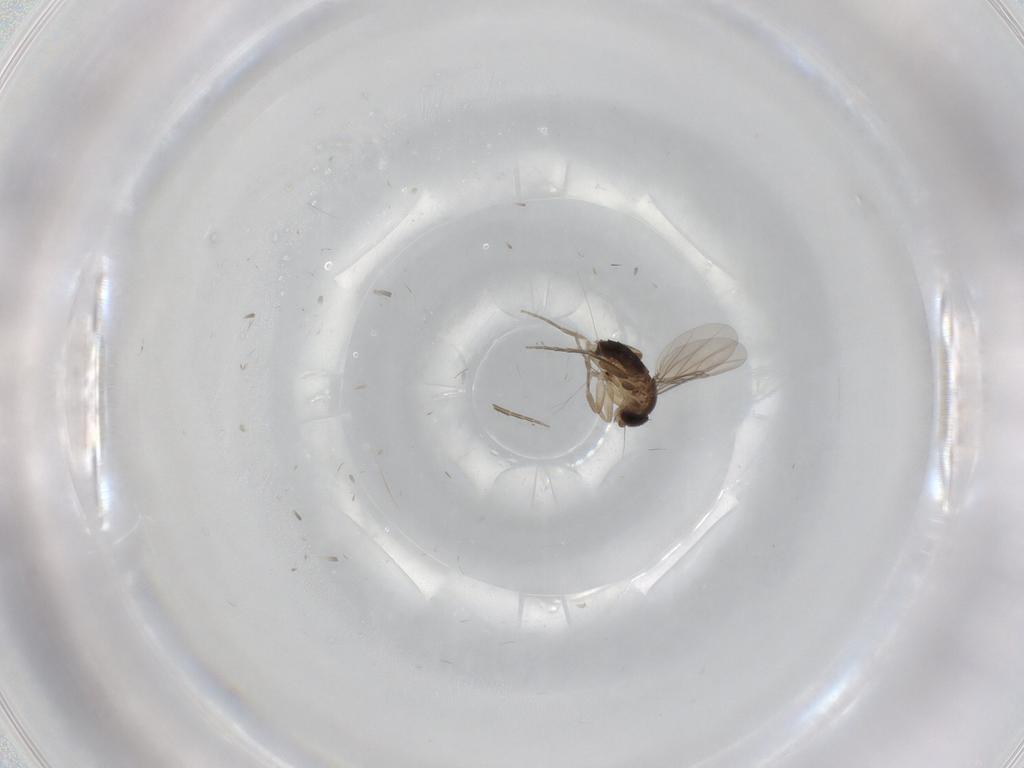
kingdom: Animalia
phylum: Arthropoda
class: Insecta
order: Diptera
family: Phoridae
